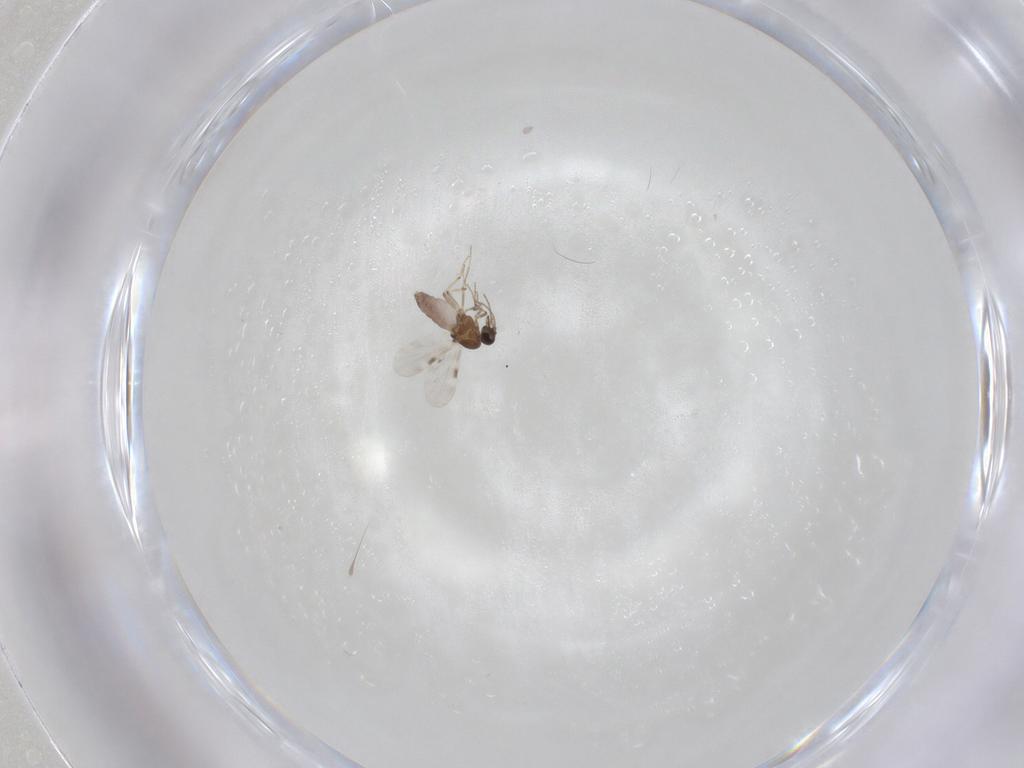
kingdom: Animalia
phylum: Arthropoda
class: Insecta
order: Diptera
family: Cecidomyiidae
